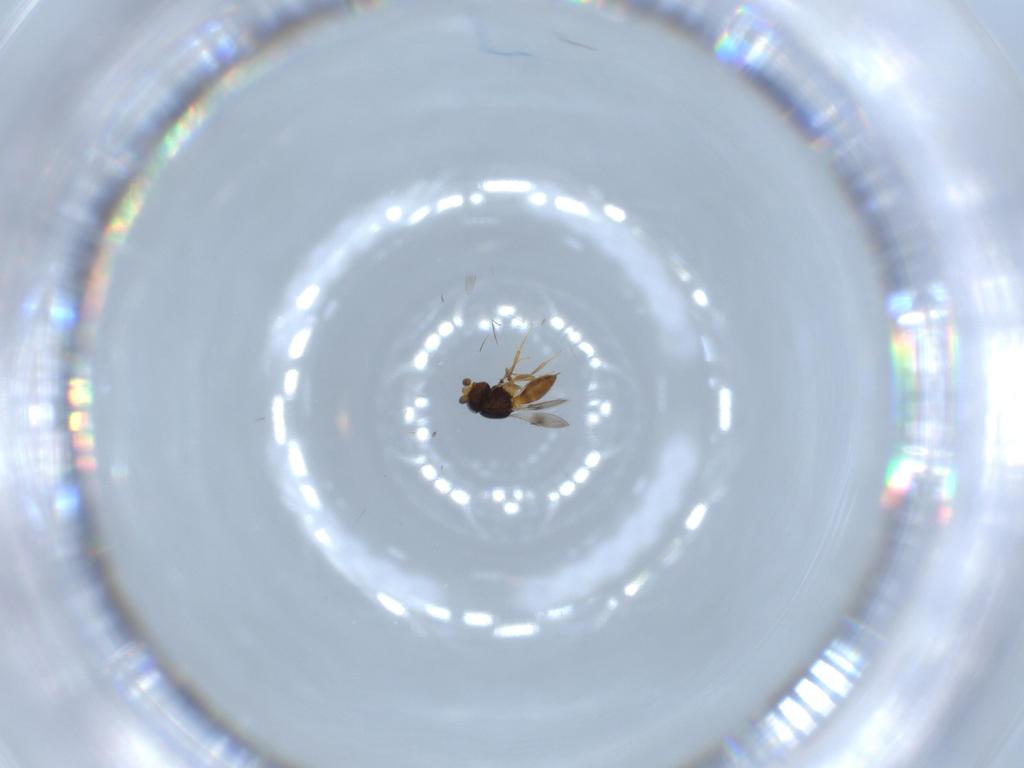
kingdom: Animalia
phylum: Arthropoda
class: Insecta
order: Hymenoptera
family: Scelionidae
